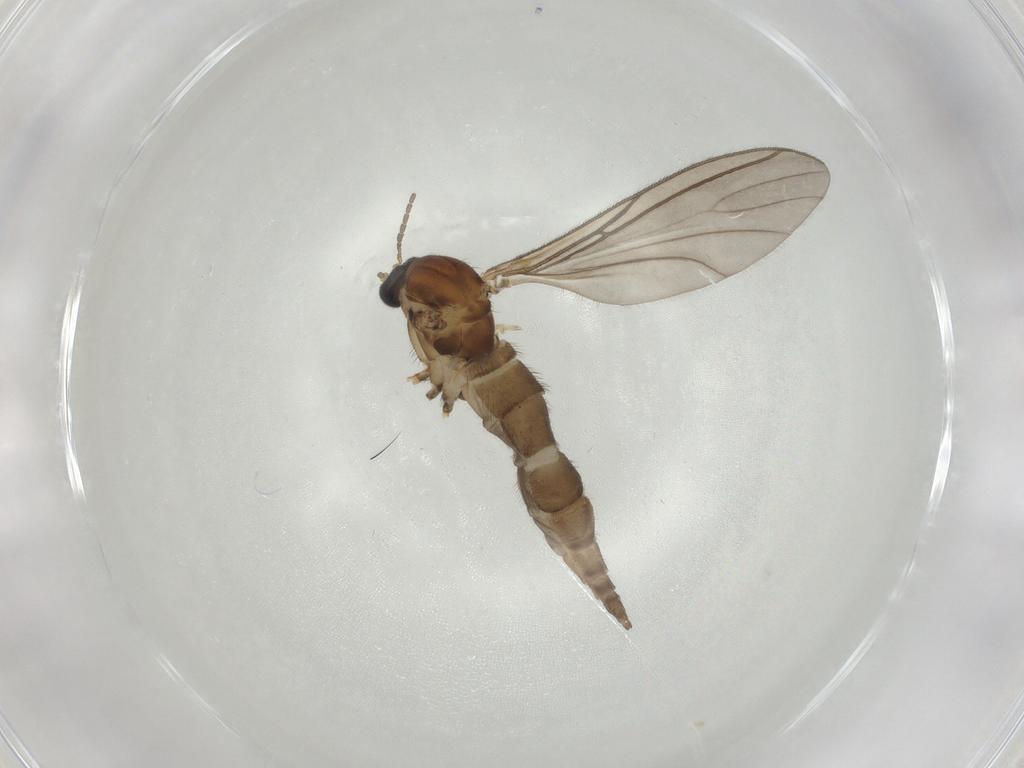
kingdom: Animalia
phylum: Arthropoda
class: Insecta
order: Diptera
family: Sciaridae
